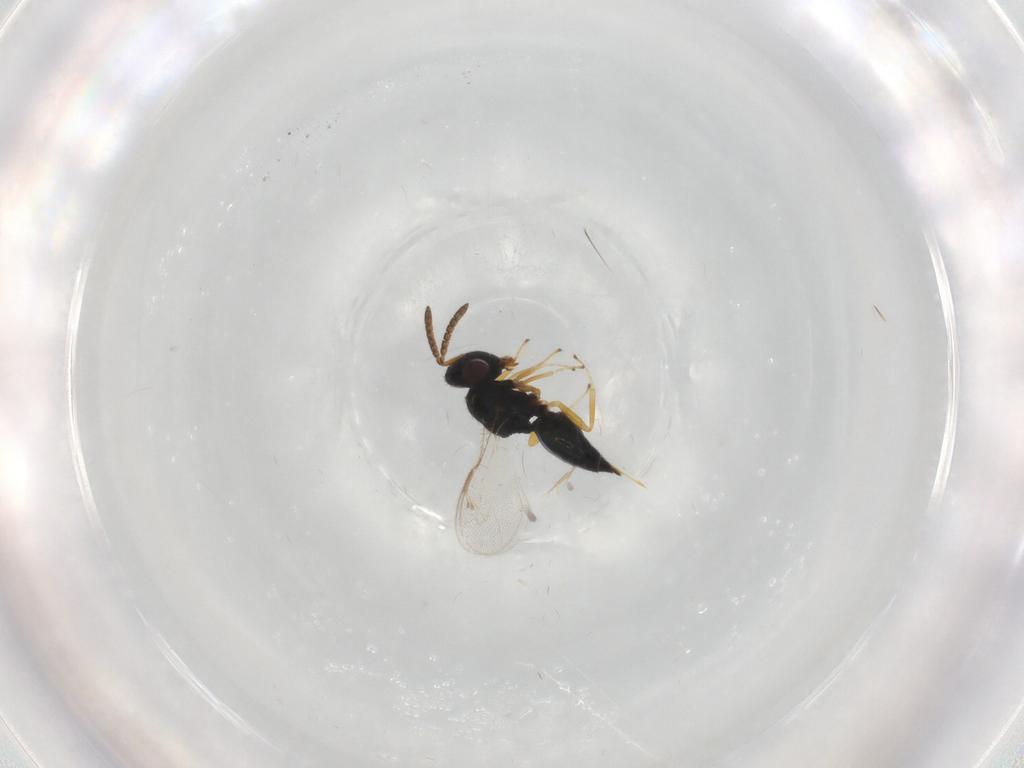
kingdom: Animalia
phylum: Arthropoda
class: Insecta
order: Hymenoptera
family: Pteromalidae
